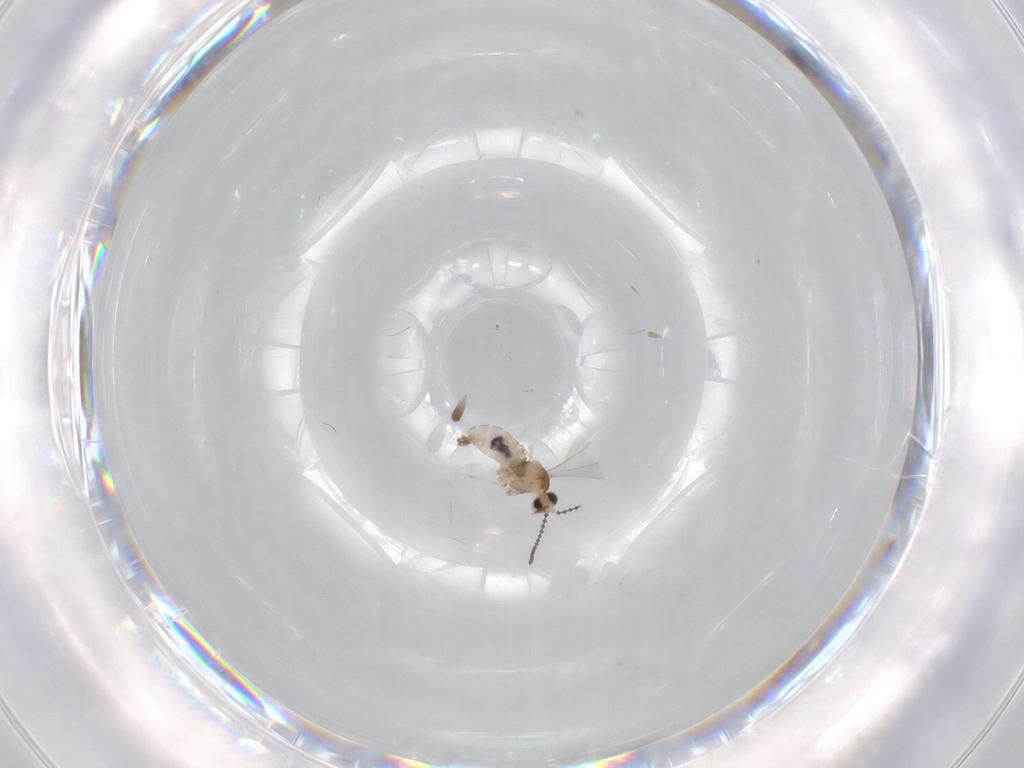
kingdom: Animalia
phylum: Arthropoda
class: Insecta
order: Diptera
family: Cecidomyiidae
